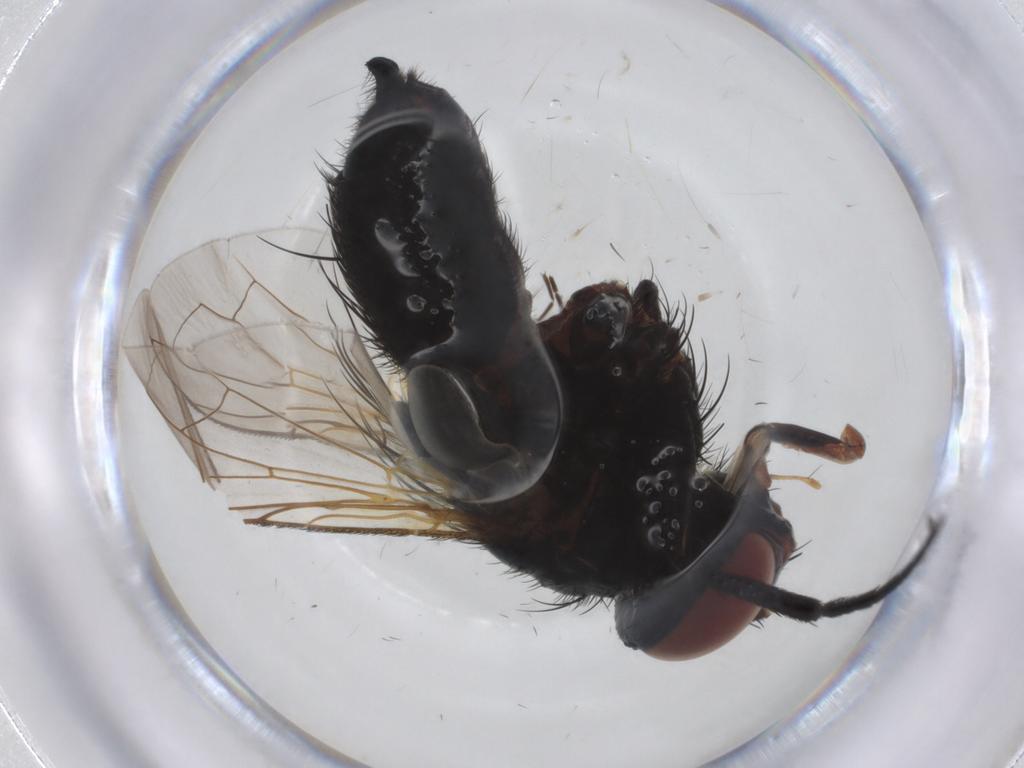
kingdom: Animalia
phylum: Arthropoda
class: Insecta
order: Diptera
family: Tachinidae
